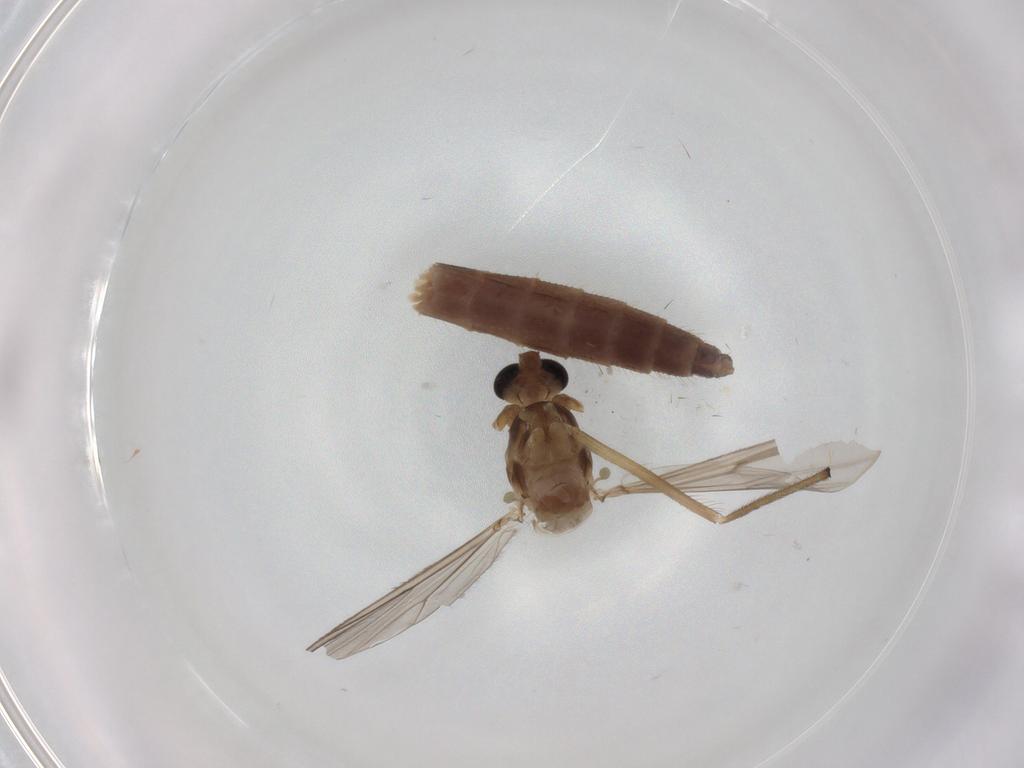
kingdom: Animalia
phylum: Arthropoda
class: Insecta
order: Diptera
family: Chironomidae
